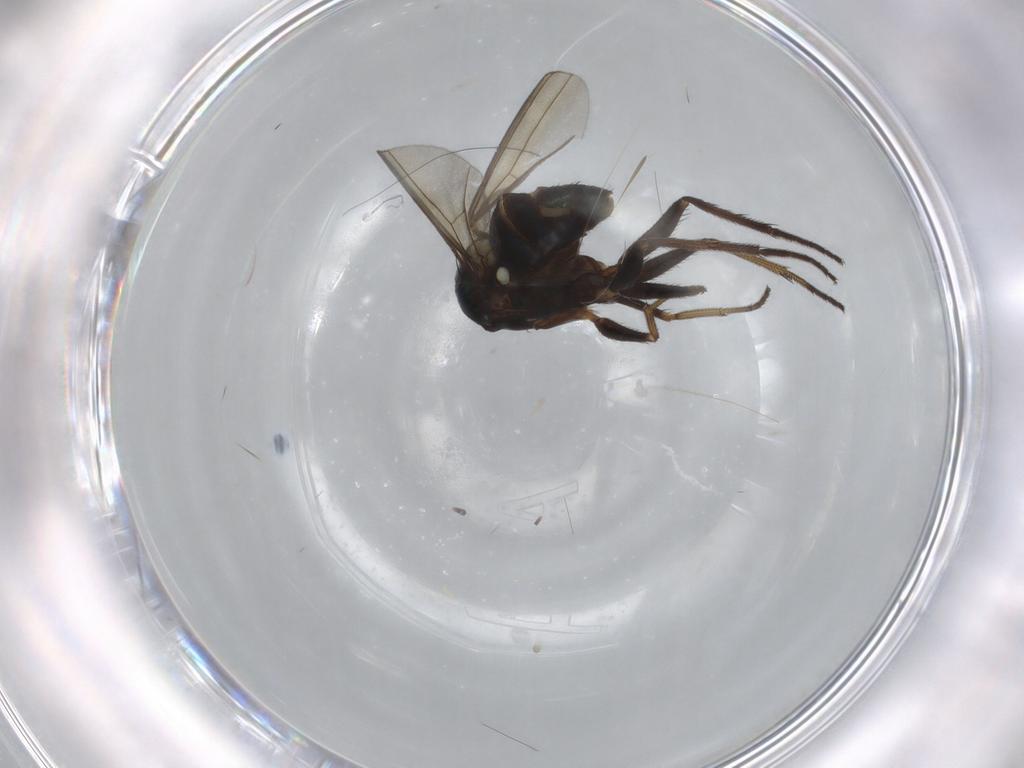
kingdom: Animalia
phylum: Arthropoda
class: Insecta
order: Diptera
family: Dolichopodidae
